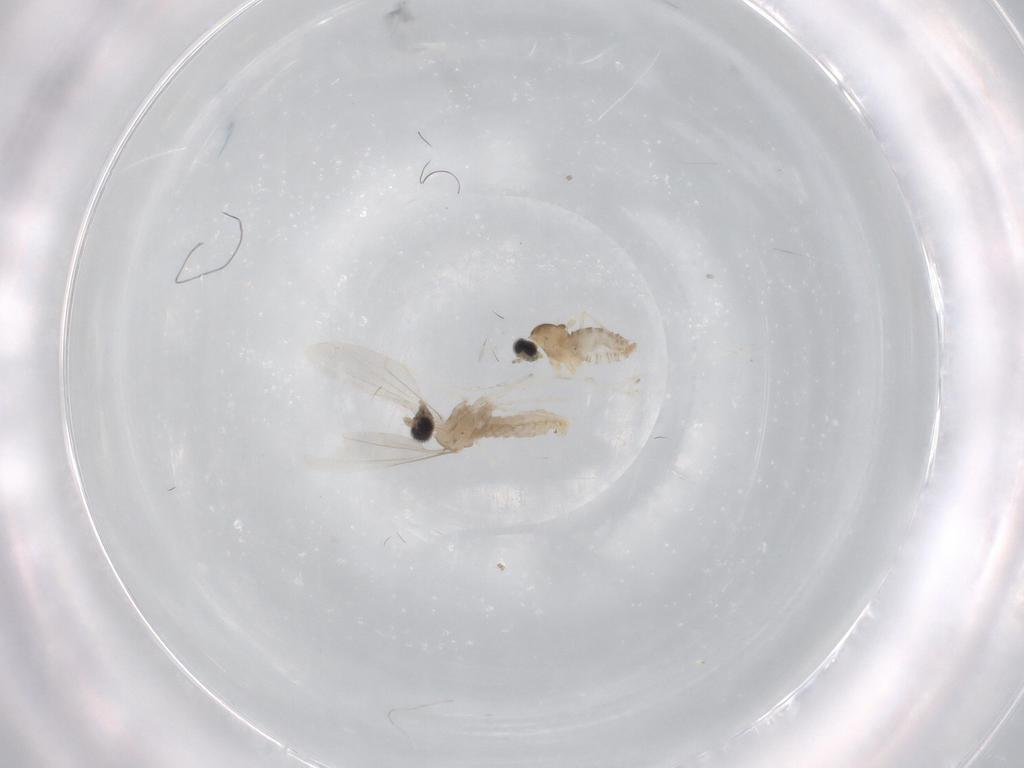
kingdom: Animalia
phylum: Arthropoda
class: Insecta
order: Diptera
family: Cecidomyiidae
